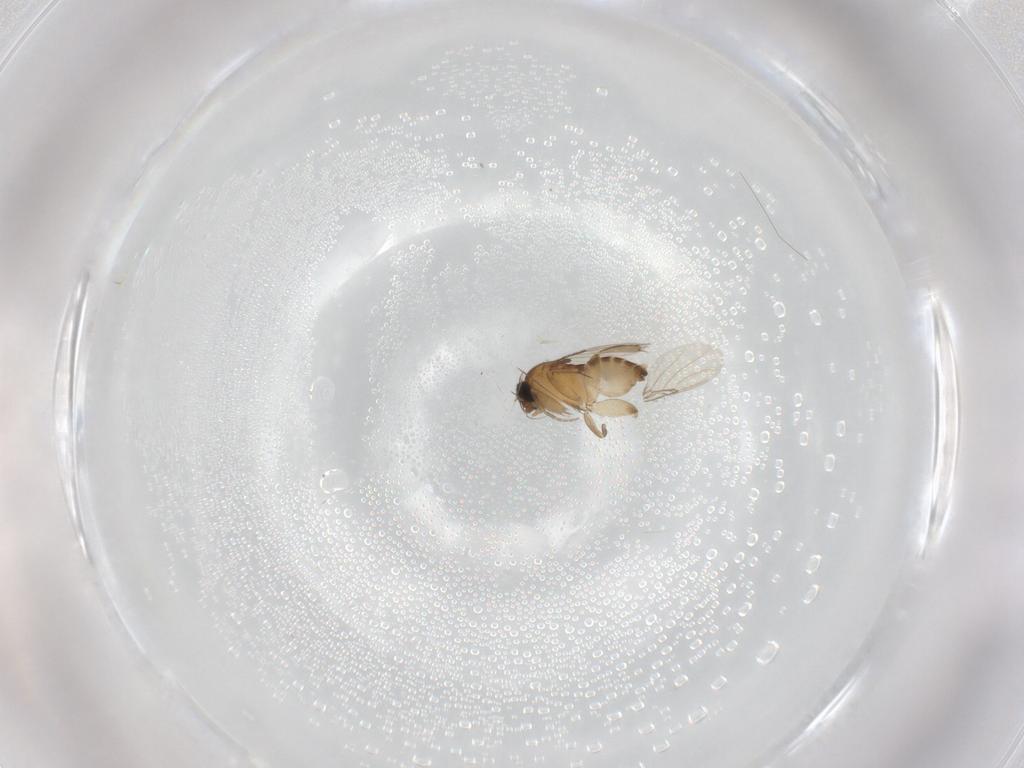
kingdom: Animalia
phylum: Arthropoda
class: Insecta
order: Diptera
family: Phoridae
